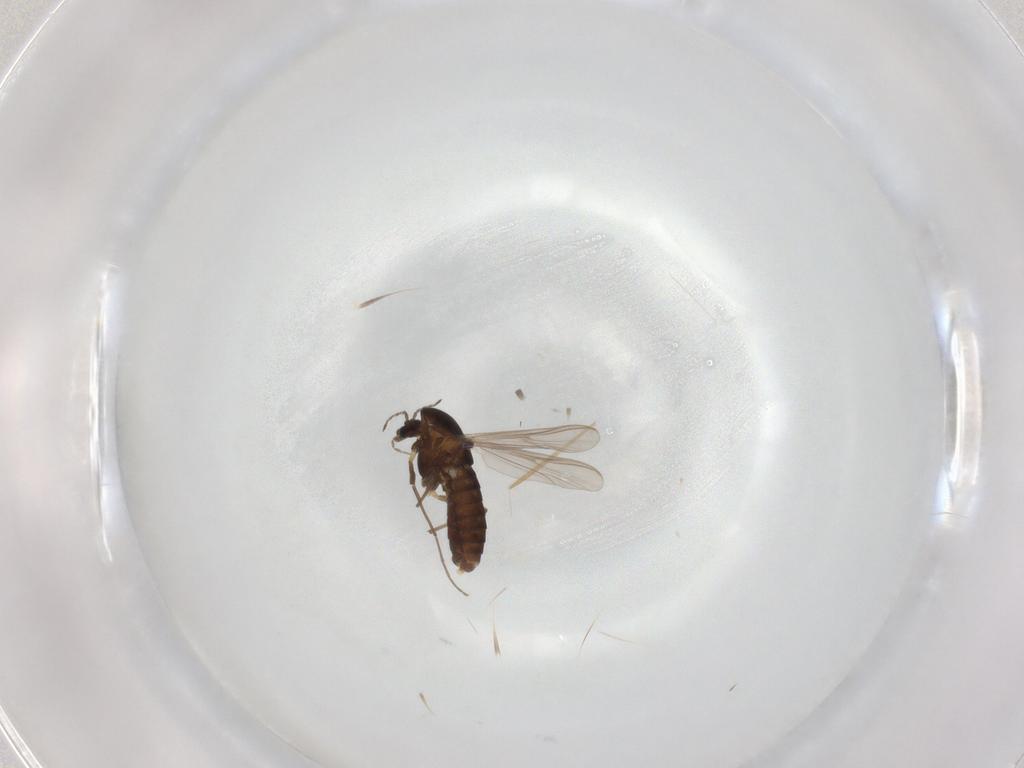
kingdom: Animalia
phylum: Arthropoda
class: Insecta
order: Diptera
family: Chironomidae
